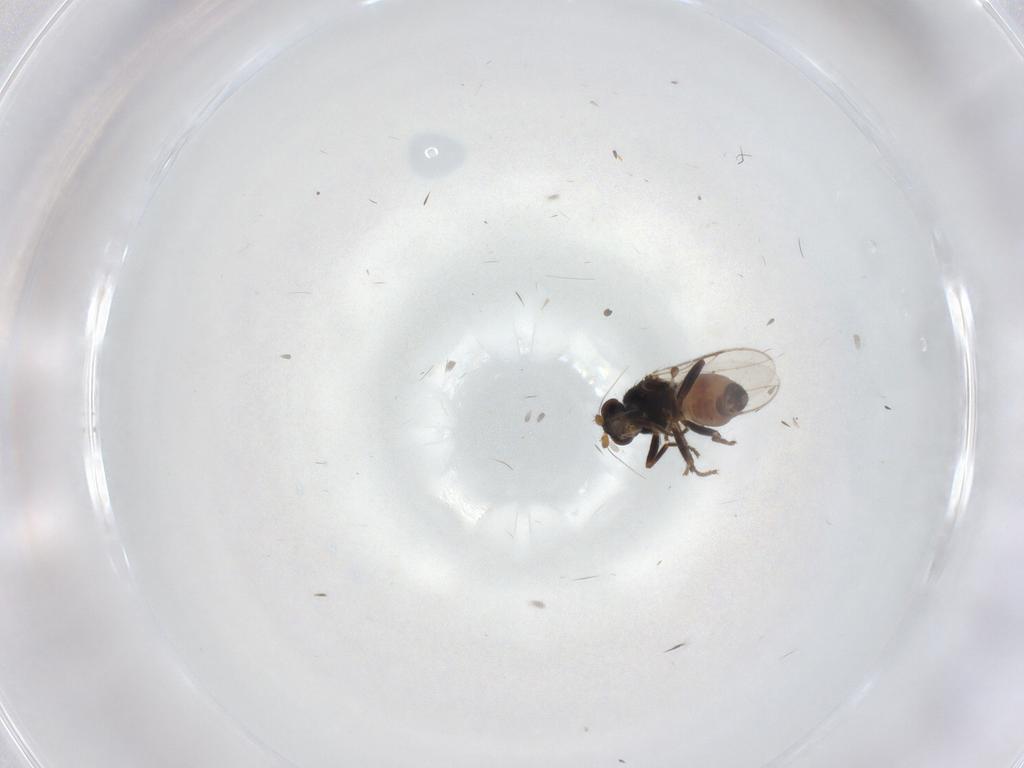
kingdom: Animalia
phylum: Arthropoda
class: Insecta
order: Diptera
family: Sphaeroceridae
